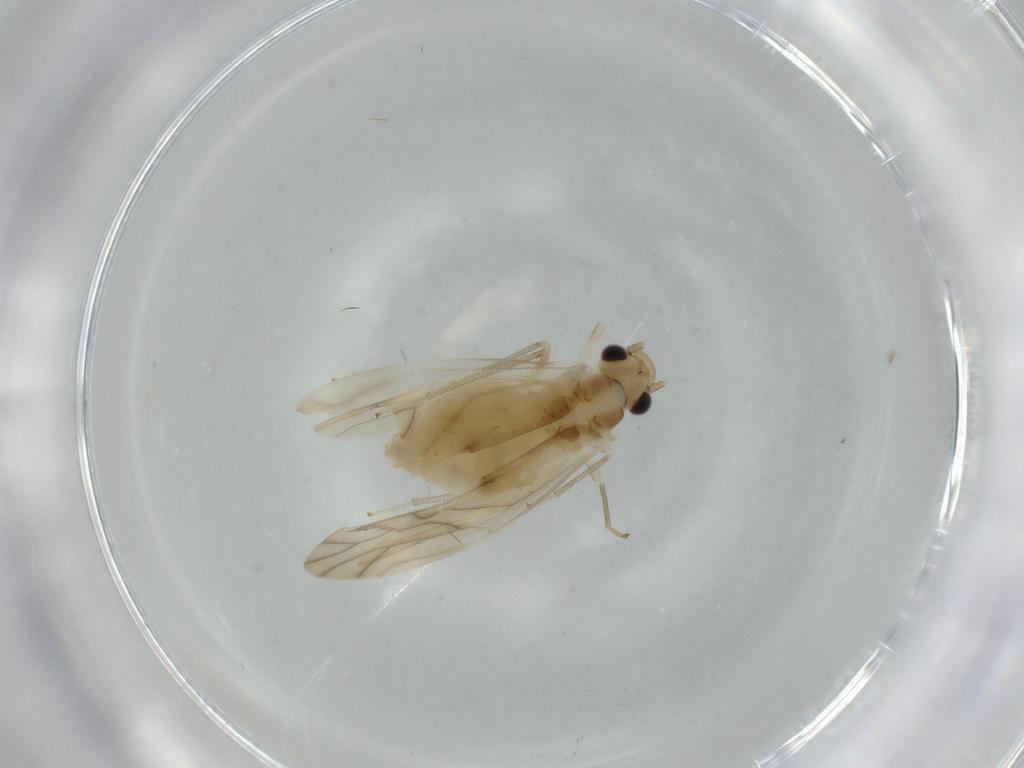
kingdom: Animalia
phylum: Arthropoda
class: Insecta
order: Psocodea
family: Caeciliusidae
